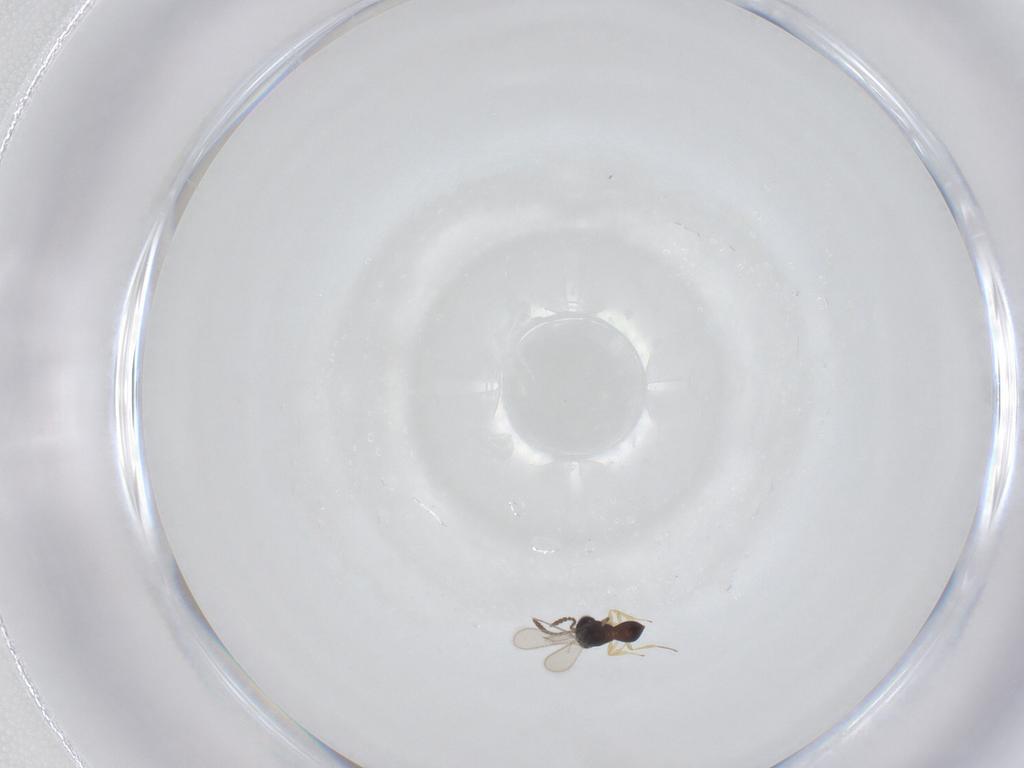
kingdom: Animalia
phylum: Arthropoda
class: Insecta
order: Hymenoptera
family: Scelionidae
